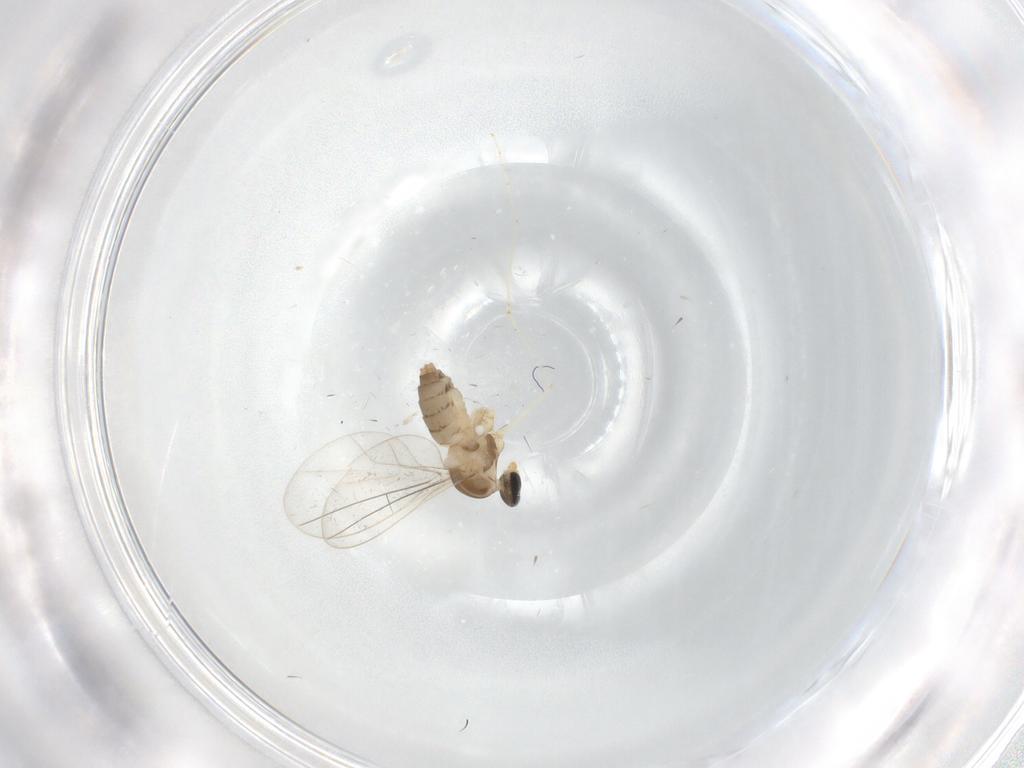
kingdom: Animalia
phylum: Arthropoda
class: Insecta
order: Diptera
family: Cecidomyiidae
